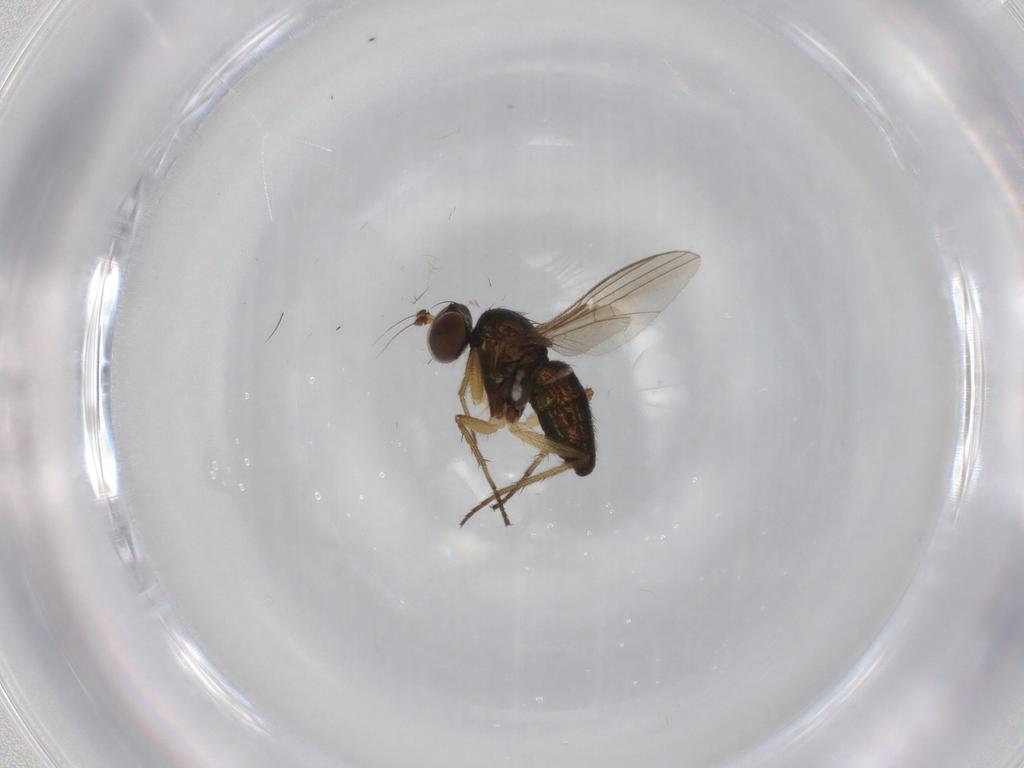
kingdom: Animalia
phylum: Arthropoda
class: Insecta
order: Diptera
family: Dolichopodidae
